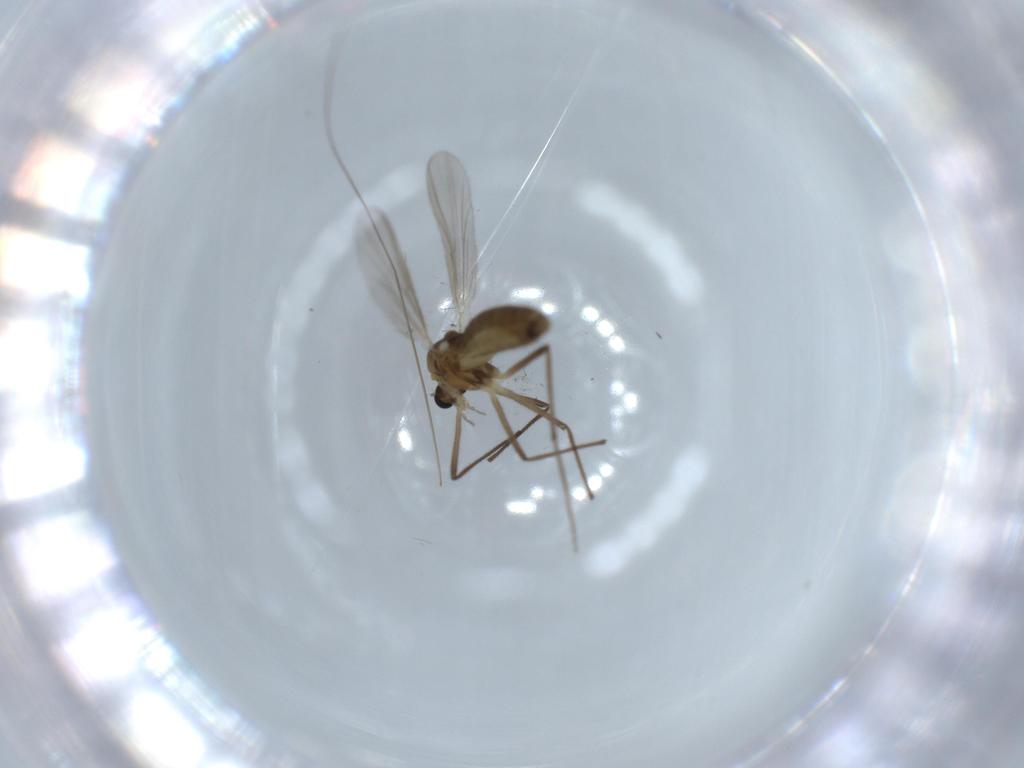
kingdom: Animalia
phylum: Arthropoda
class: Insecta
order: Diptera
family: Chironomidae
